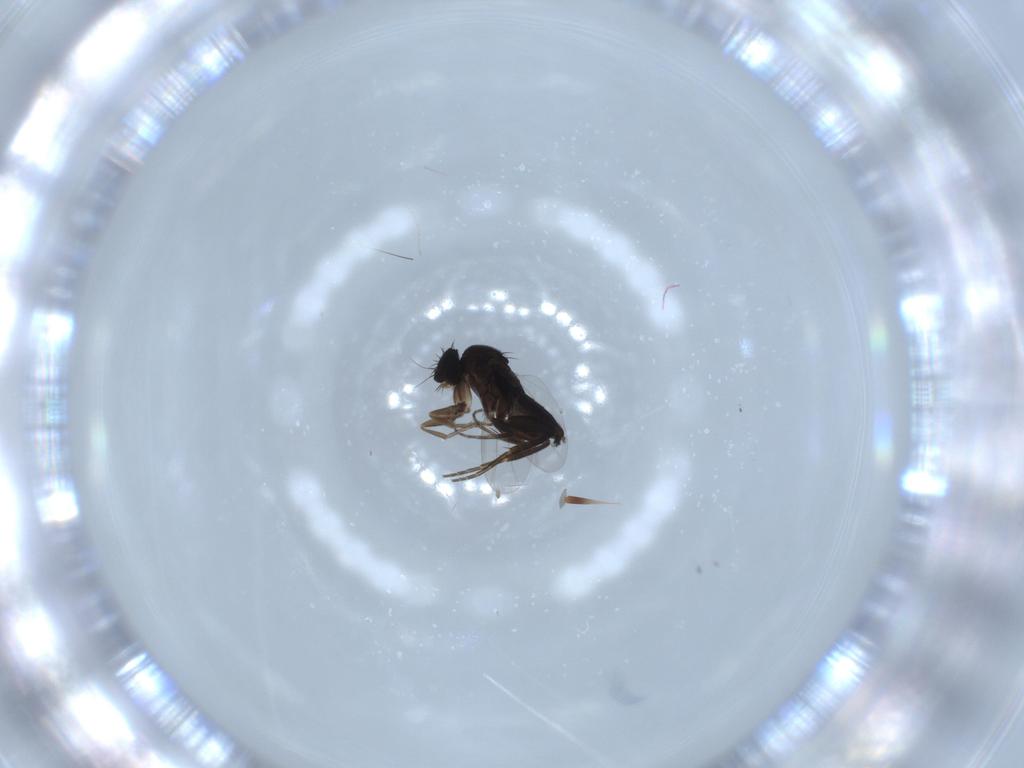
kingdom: Animalia
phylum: Arthropoda
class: Insecta
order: Diptera
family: Phoridae
